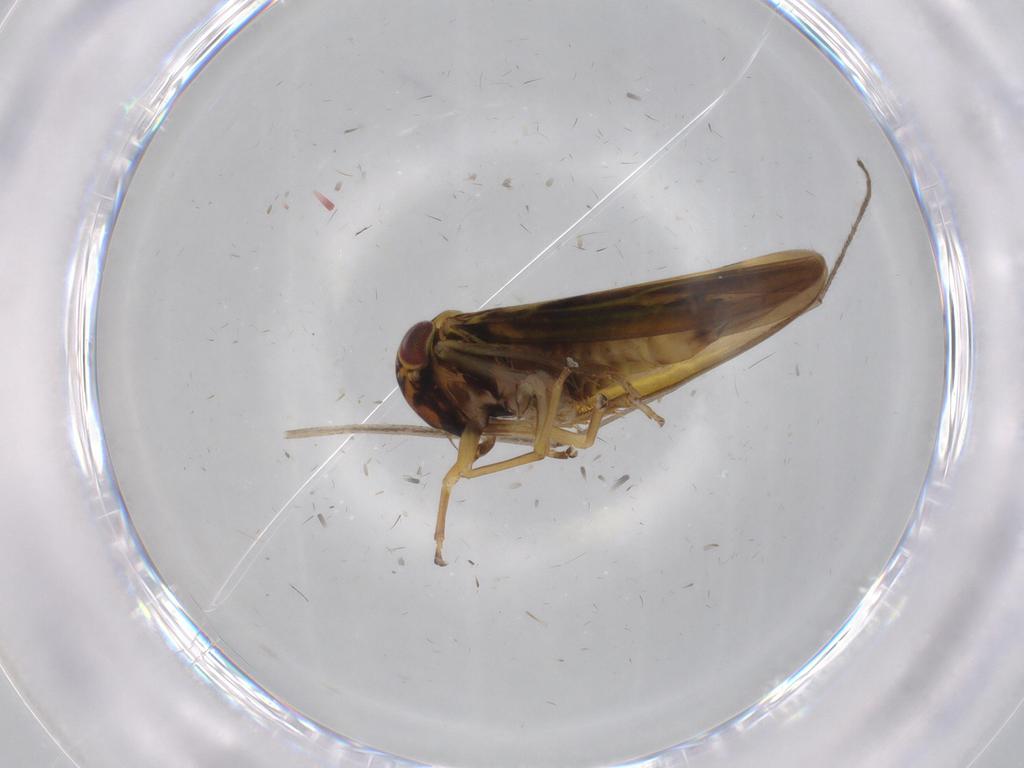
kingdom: Animalia
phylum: Arthropoda
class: Insecta
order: Hemiptera
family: Cicadellidae
